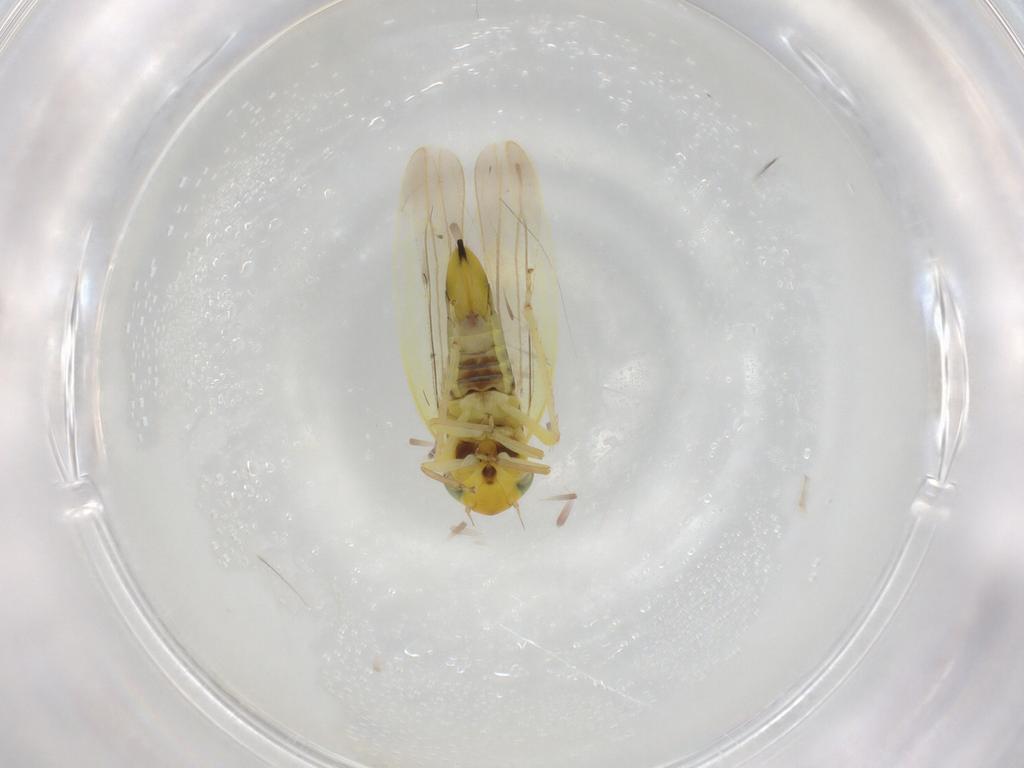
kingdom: Animalia
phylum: Arthropoda
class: Insecta
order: Hemiptera
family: Cicadellidae
